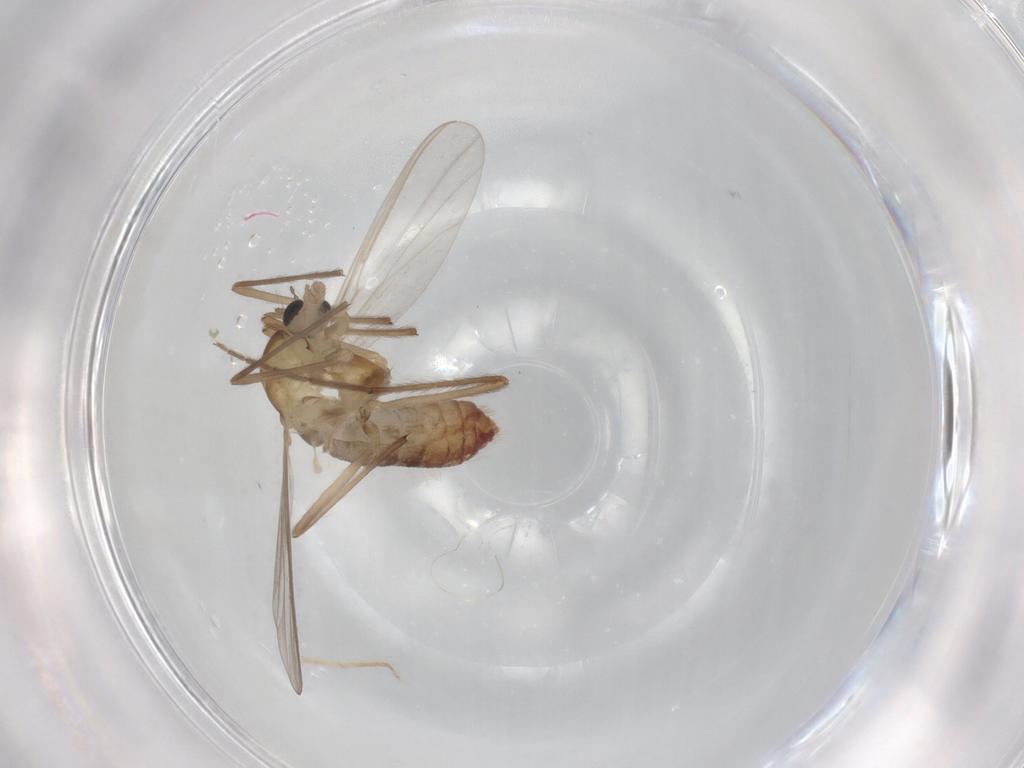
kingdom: Animalia
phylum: Arthropoda
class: Insecta
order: Diptera
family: Chironomidae
